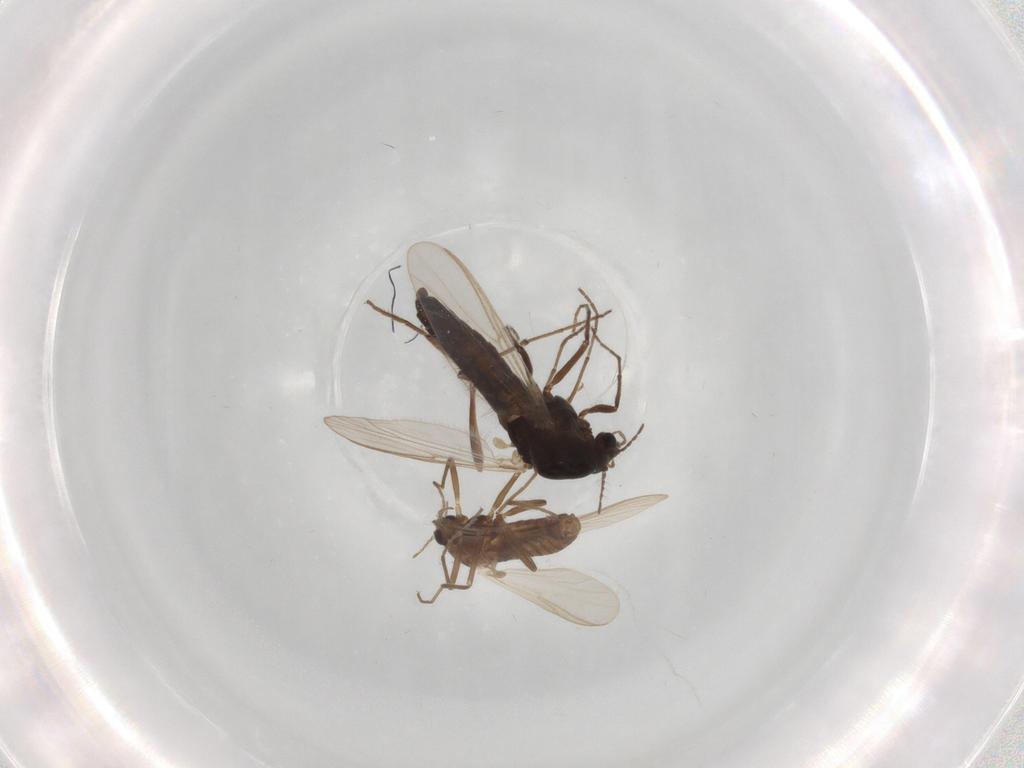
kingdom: Animalia
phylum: Arthropoda
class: Insecta
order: Diptera
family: Chironomidae
